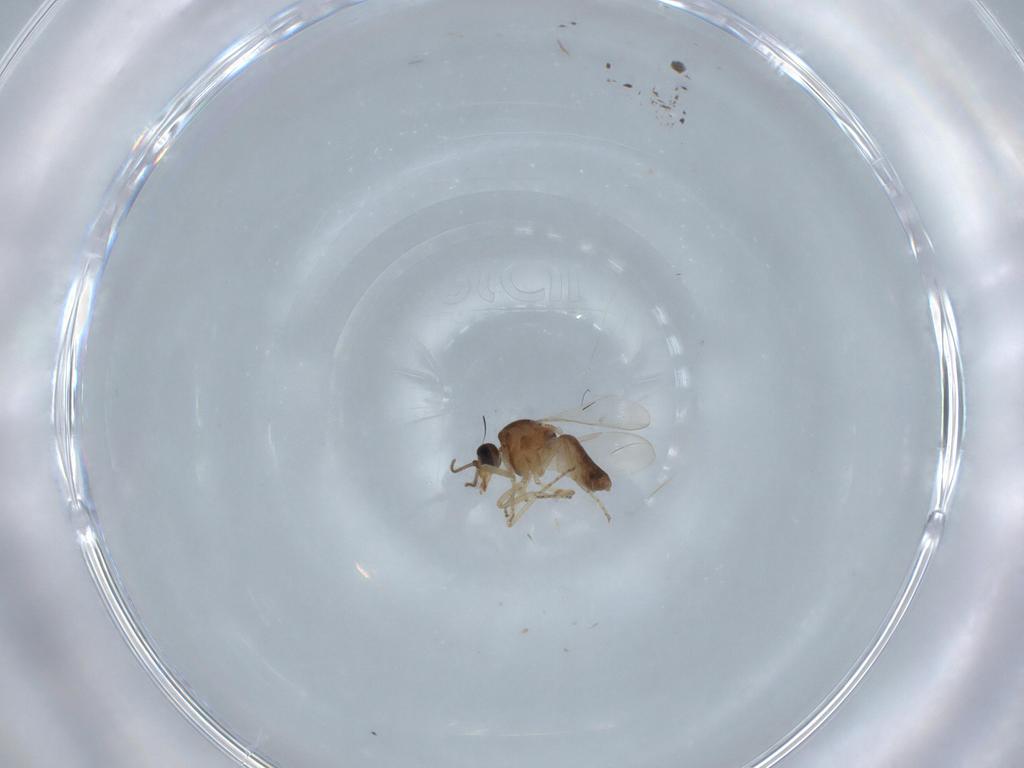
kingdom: Animalia
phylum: Arthropoda
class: Insecta
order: Diptera
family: Ceratopogonidae
